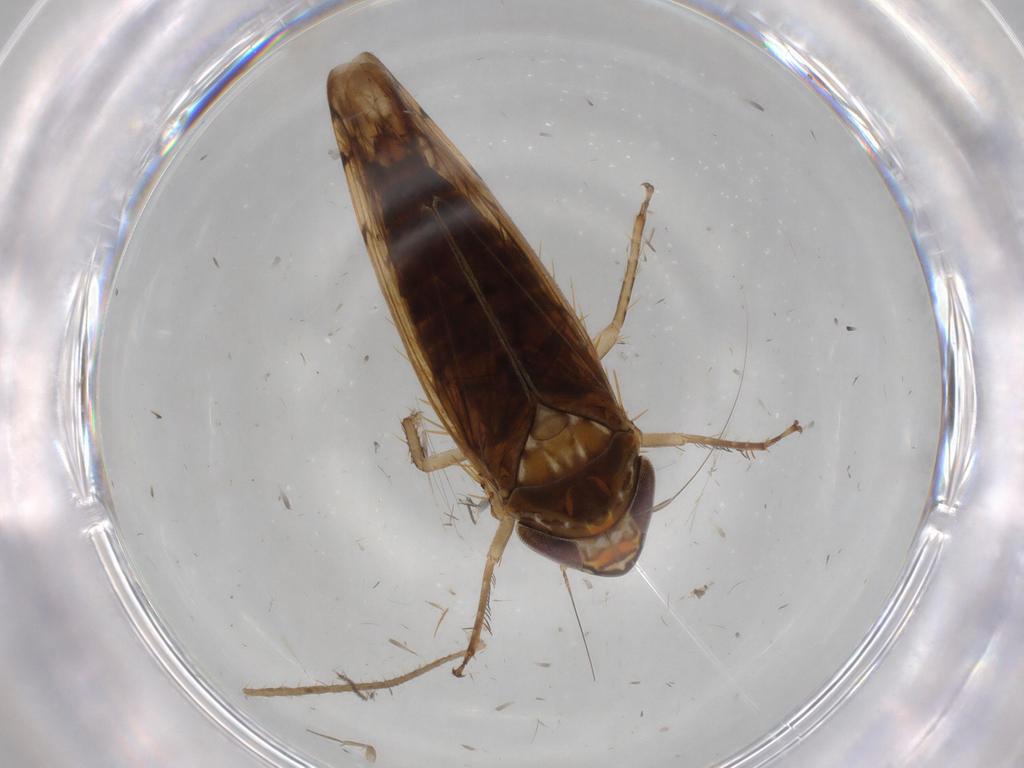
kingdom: Animalia
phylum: Arthropoda
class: Insecta
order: Hemiptera
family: Cicadellidae
